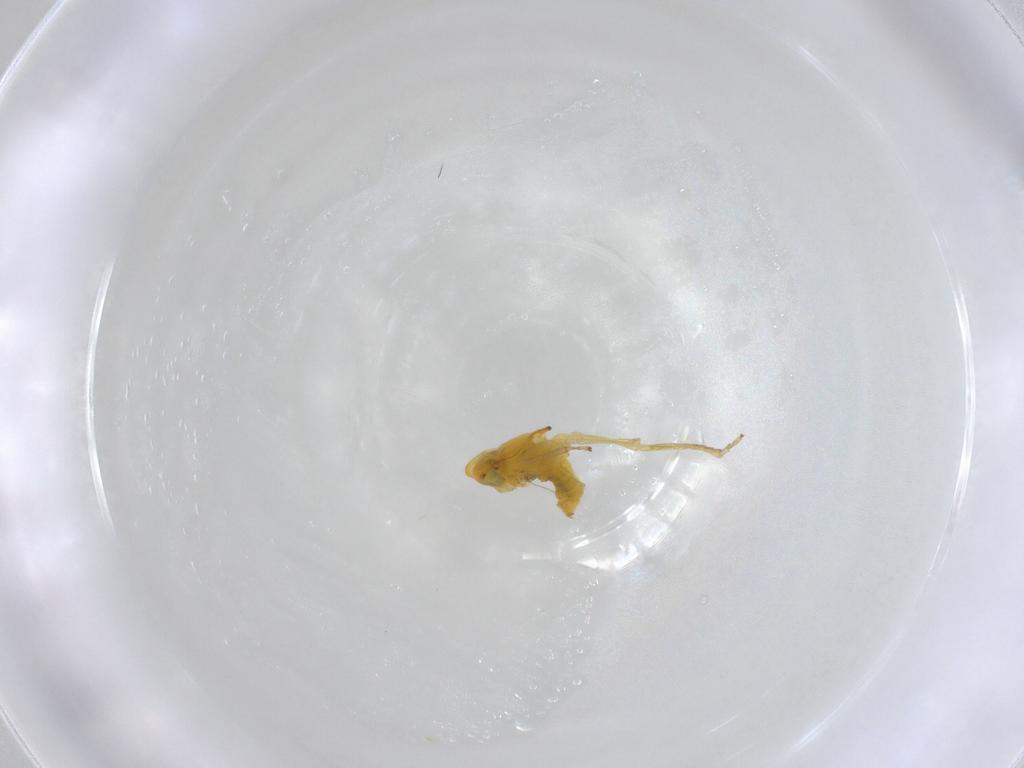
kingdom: Animalia
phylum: Arthropoda
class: Insecta
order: Hemiptera
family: Cicadellidae
